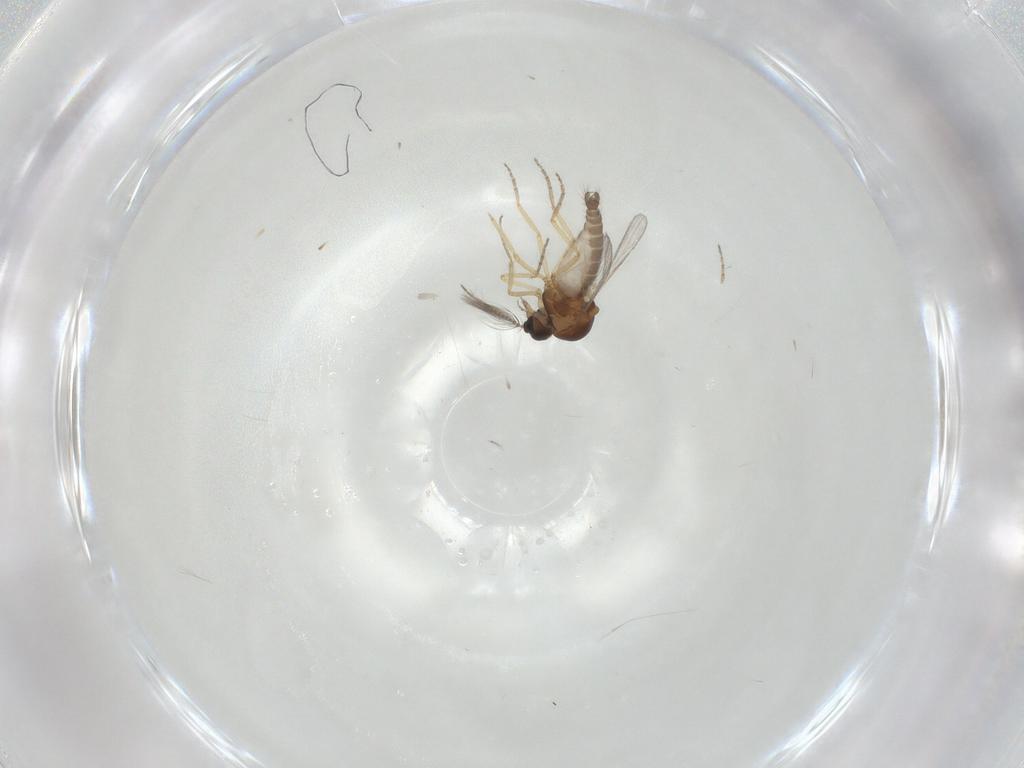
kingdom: Animalia
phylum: Arthropoda
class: Insecta
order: Diptera
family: Ceratopogonidae
